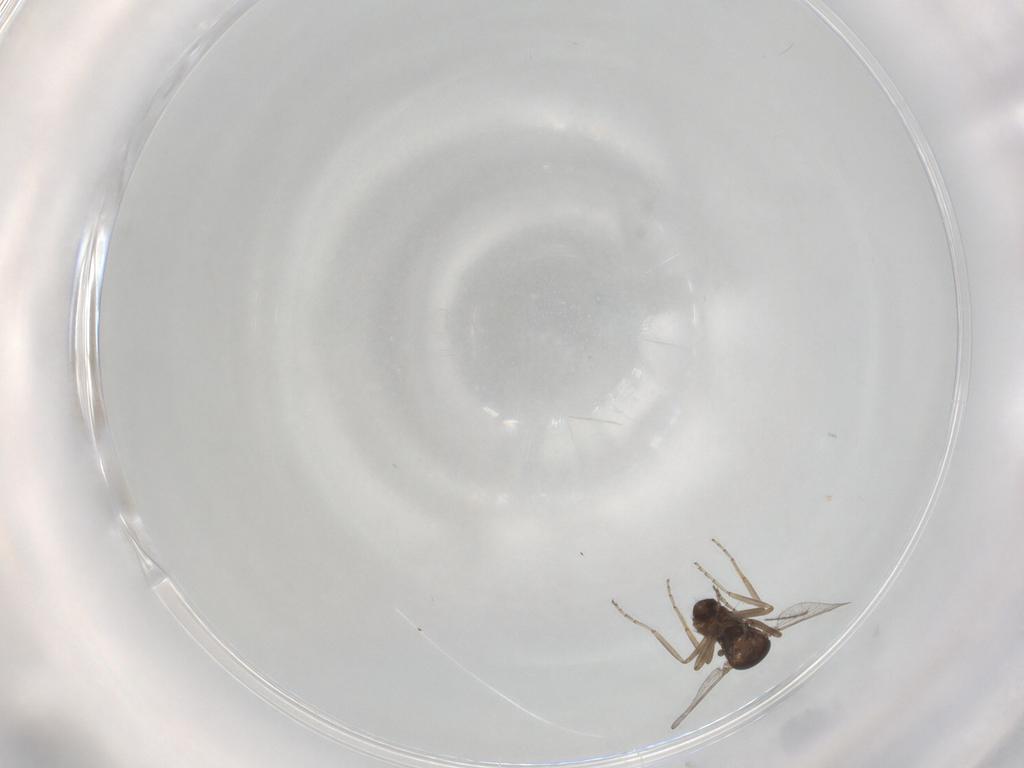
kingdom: Animalia
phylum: Arthropoda
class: Insecta
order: Diptera
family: Ceratopogonidae
